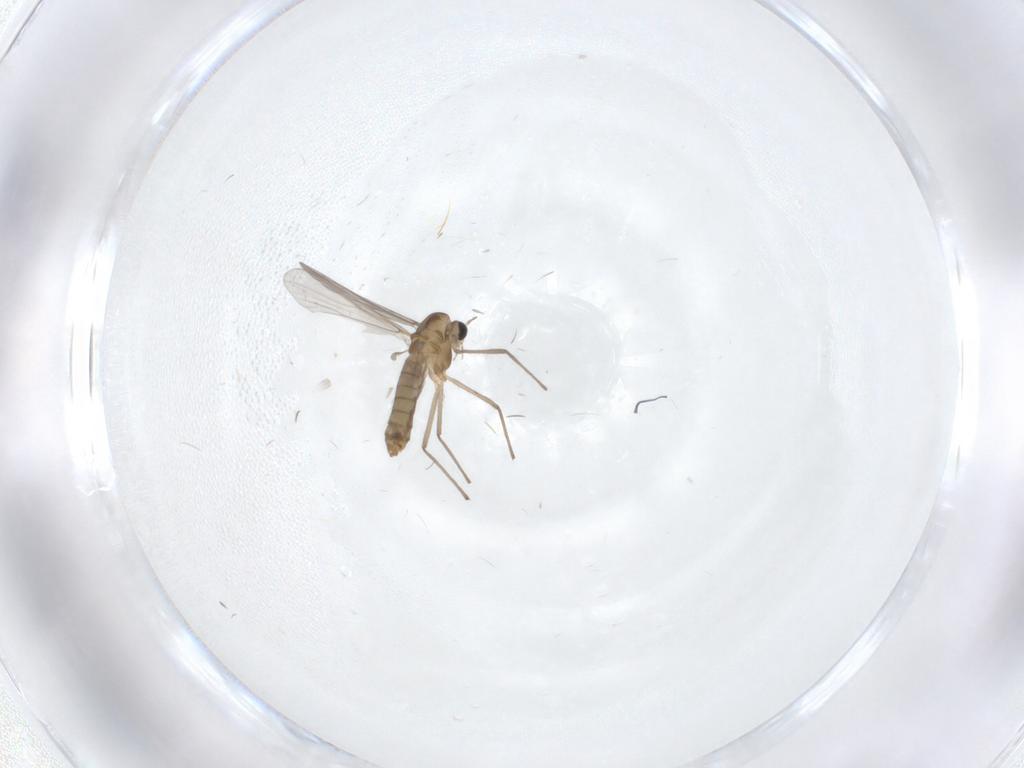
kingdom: Animalia
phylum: Arthropoda
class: Insecta
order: Diptera
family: Chironomidae
